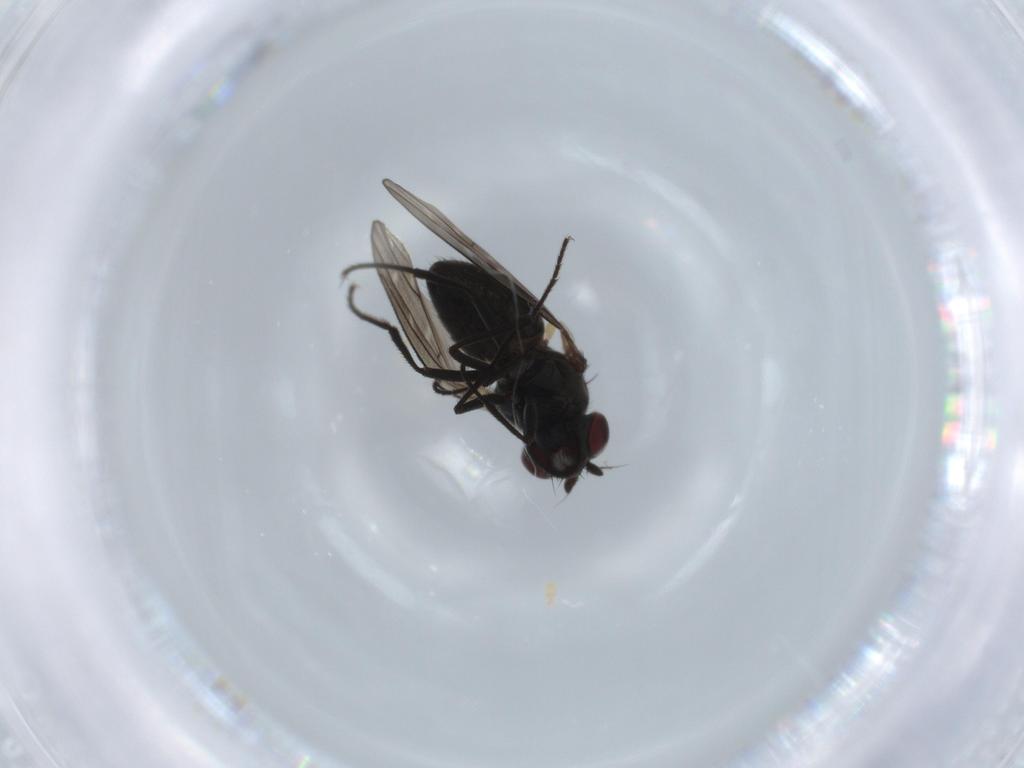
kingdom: Animalia
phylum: Arthropoda
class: Insecta
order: Diptera
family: Ephydridae
